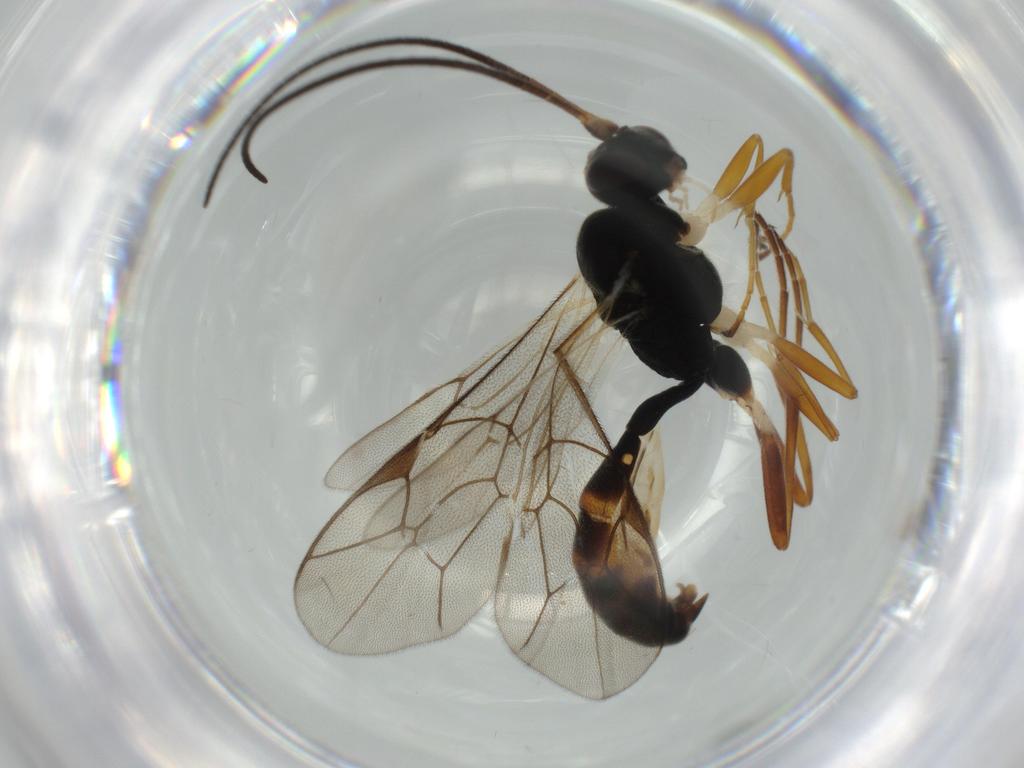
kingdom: Animalia
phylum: Arthropoda
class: Insecta
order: Hymenoptera
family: Ichneumonidae
